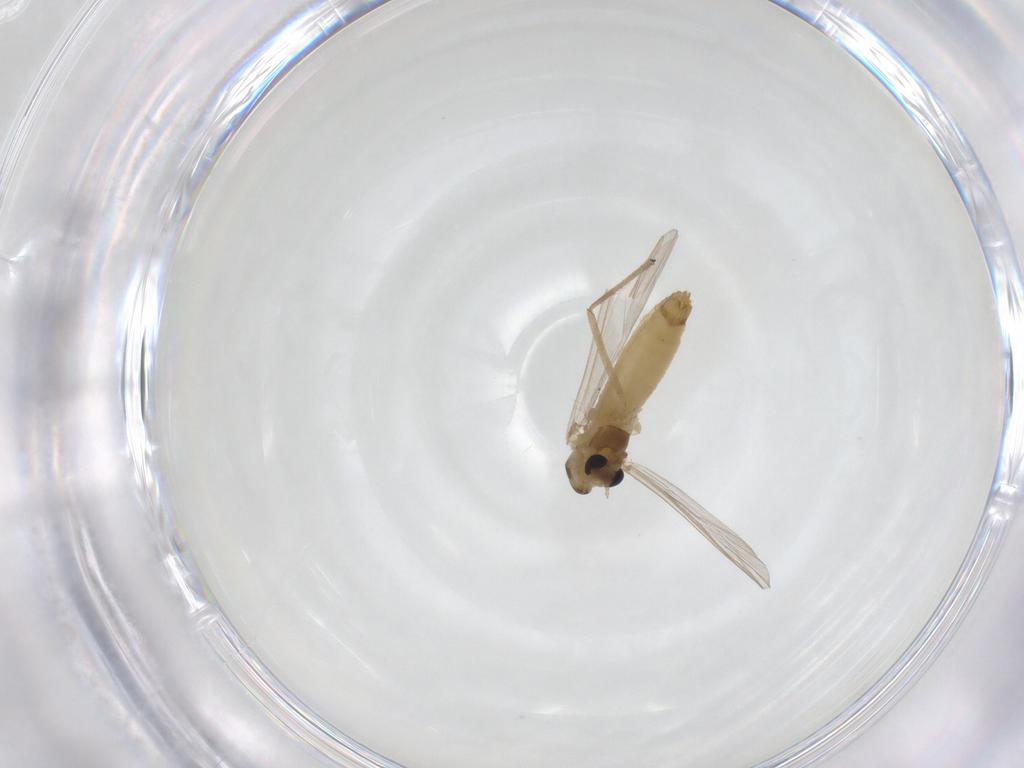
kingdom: Animalia
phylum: Arthropoda
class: Insecta
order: Diptera
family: Chironomidae
